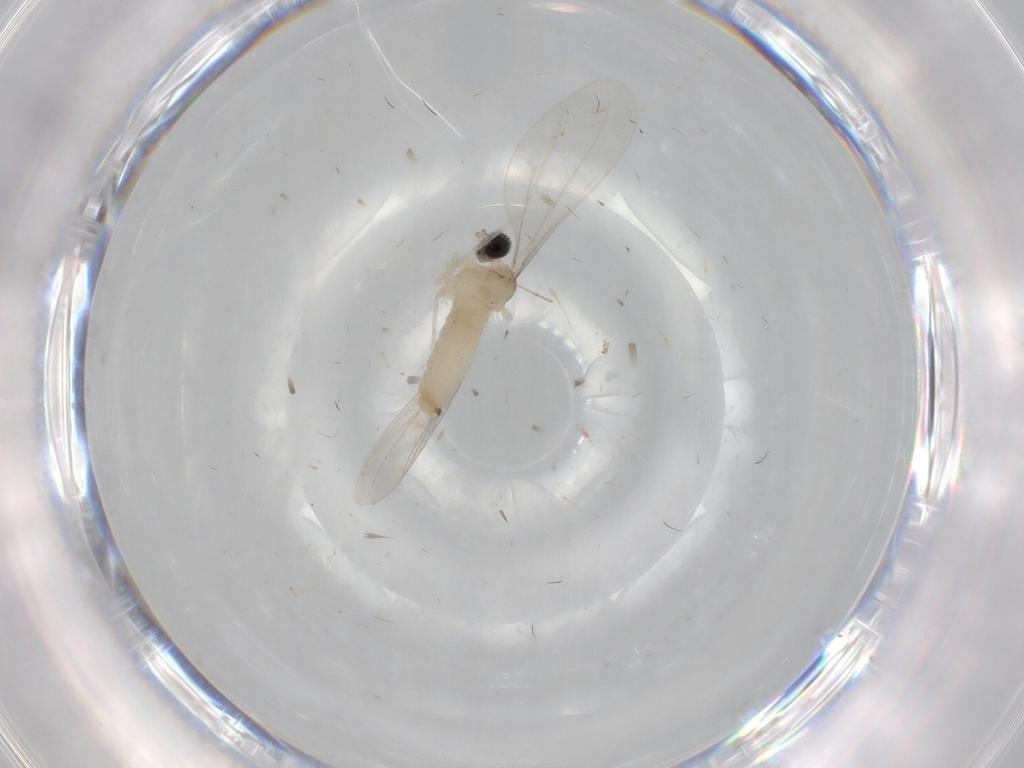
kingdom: Animalia
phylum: Arthropoda
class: Insecta
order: Diptera
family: Cecidomyiidae
